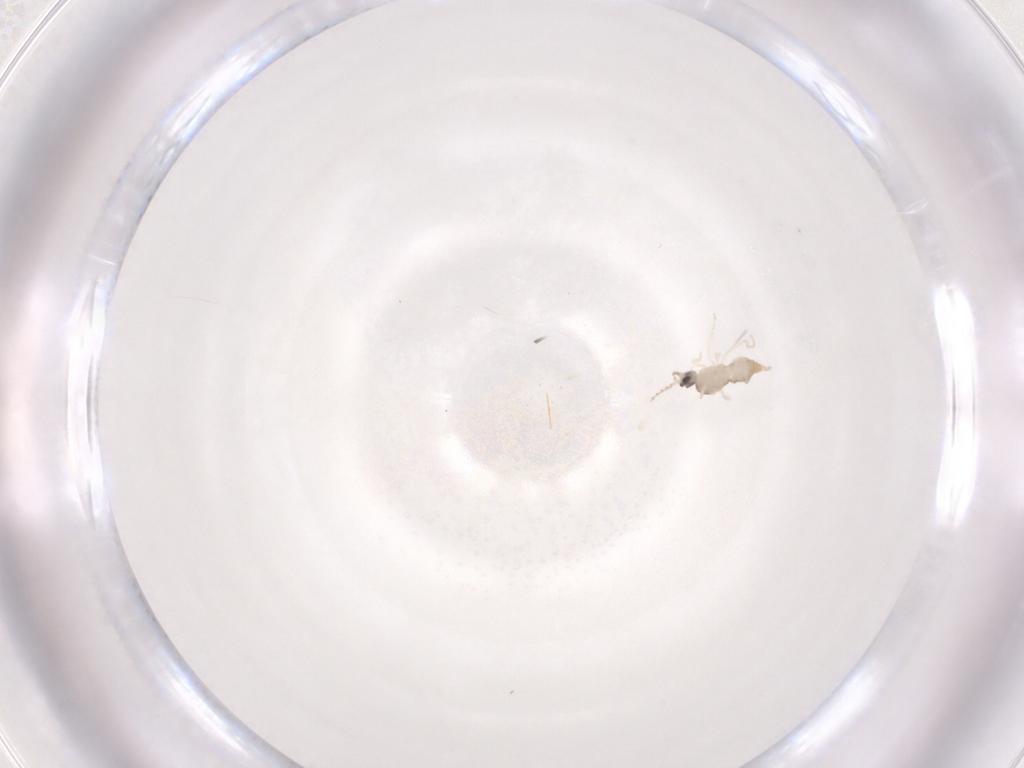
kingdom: Animalia
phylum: Arthropoda
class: Insecta
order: Diptera
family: Cecidomyiidae
